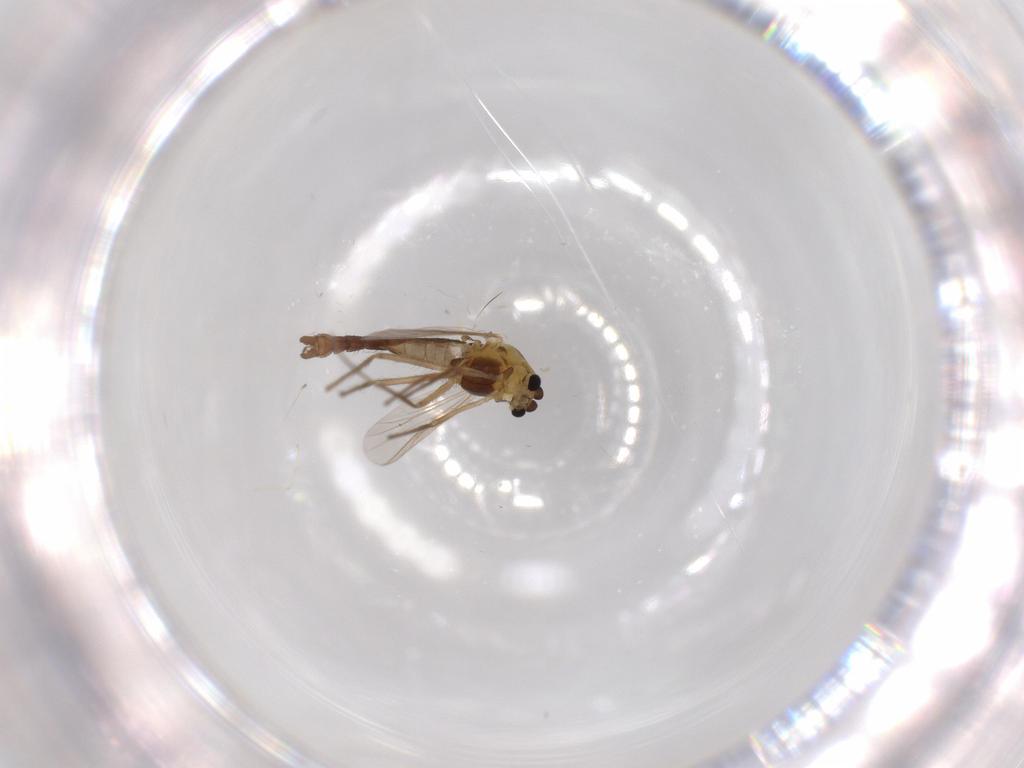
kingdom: Animalia
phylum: Arthropoda
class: Insecta
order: Diptera
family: Chironomidae
